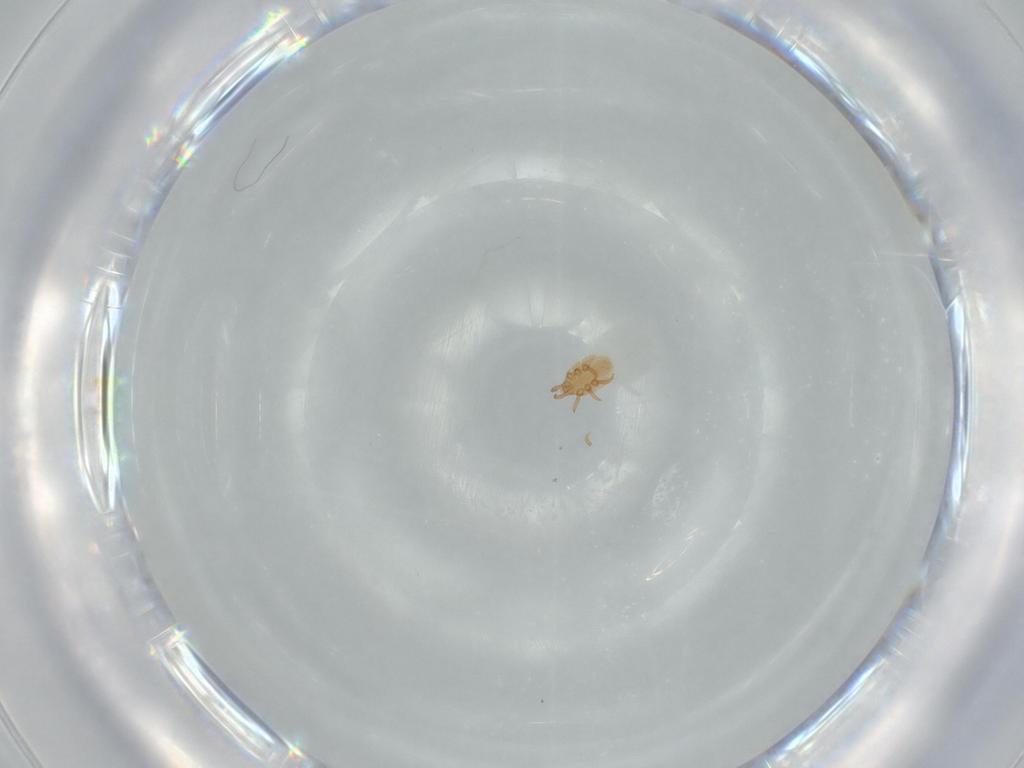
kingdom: Animalia
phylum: Arthropoda
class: Arachnida
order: Mesostigmata
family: Dinychidae
